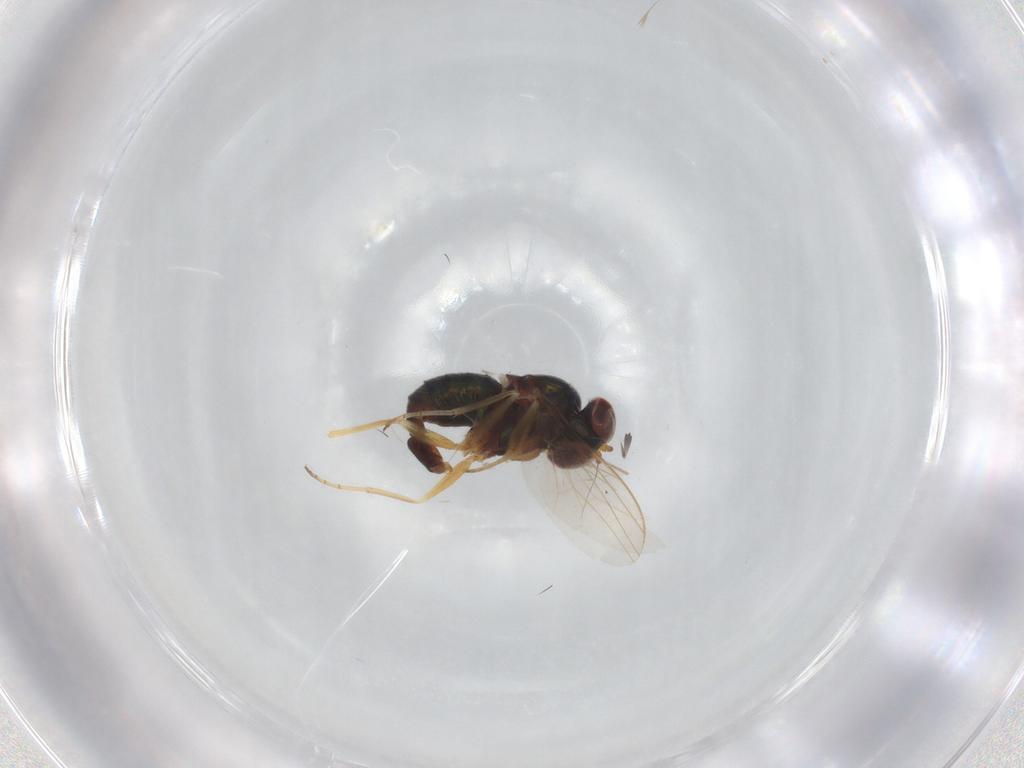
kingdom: Animalia
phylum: Arthropoda
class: Insecta
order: Diptera
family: Dolichopodidae
